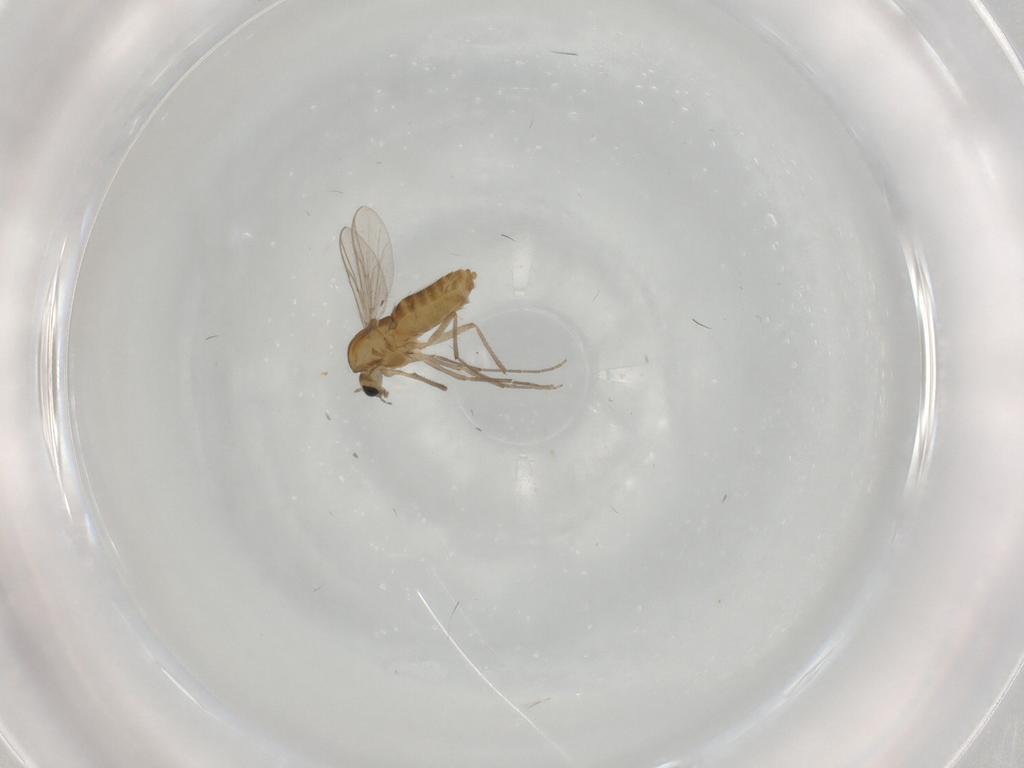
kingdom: Animalia
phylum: Arthropoda
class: Insecta
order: Diptera
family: Chironomidae
